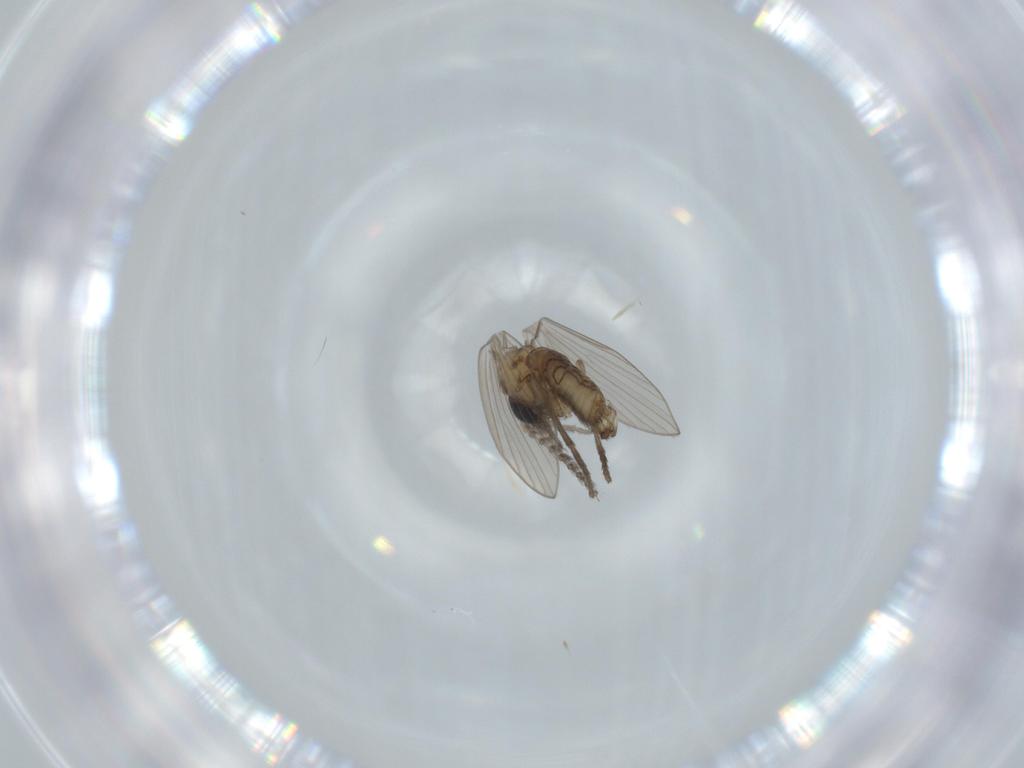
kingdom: Animalia
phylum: Arthropoda
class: Insecta
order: Diptera
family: Psychodidae
